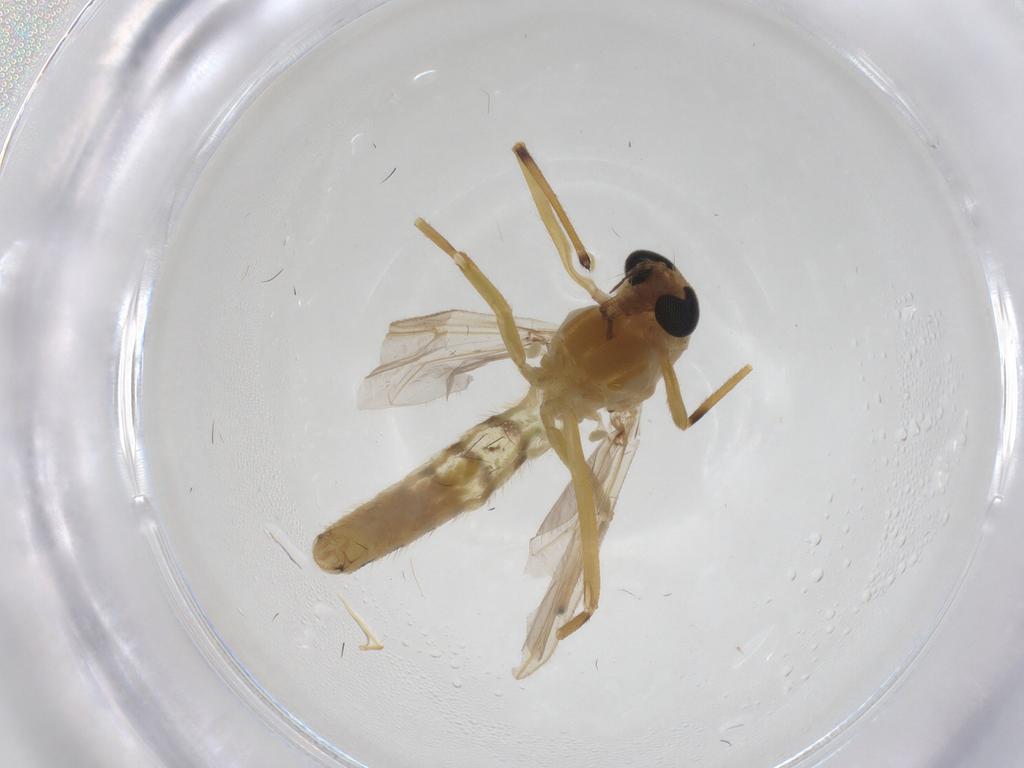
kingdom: Animalia
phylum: Arthropoda
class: Insecta
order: Diptera
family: Chironomidae
